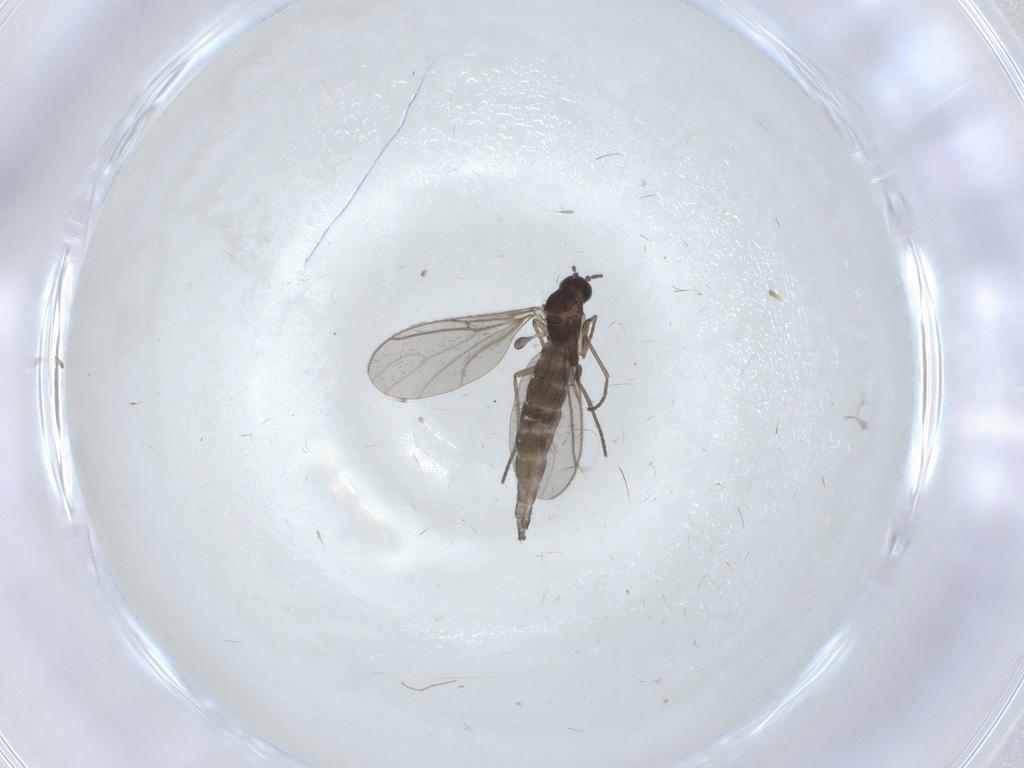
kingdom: Animalia
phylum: Arthropoda
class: Insecta
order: Diptera
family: Sciaridae
